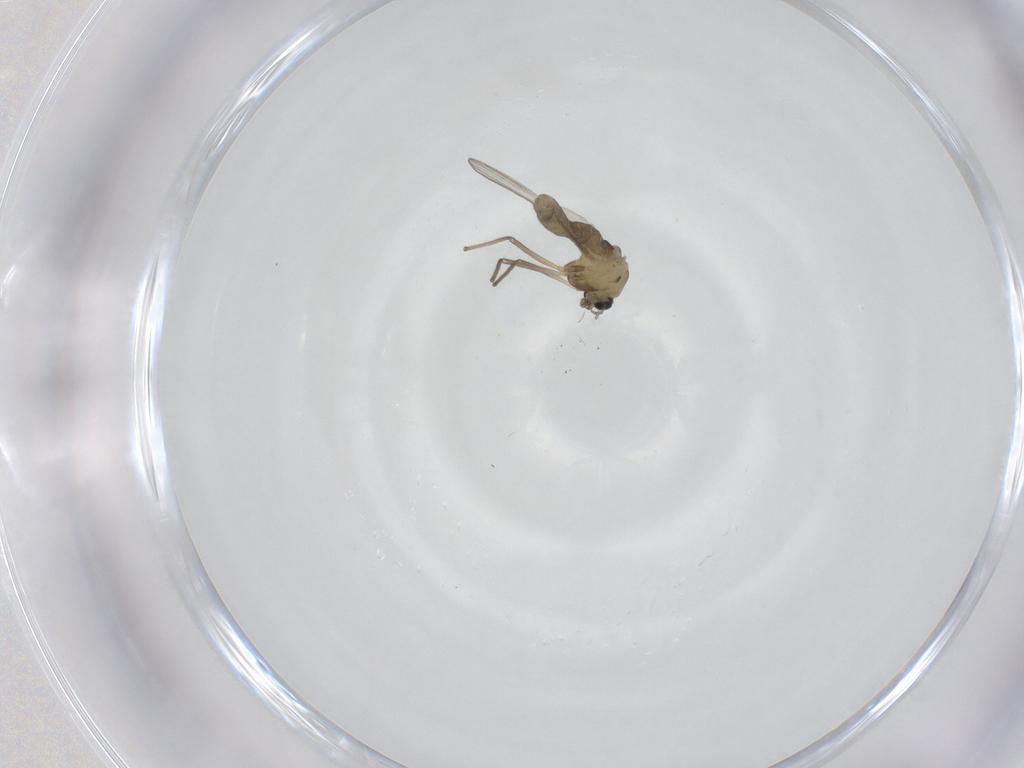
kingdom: Animalia
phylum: Arthropoda
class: Insecta
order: Diptera
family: Chironomidae
